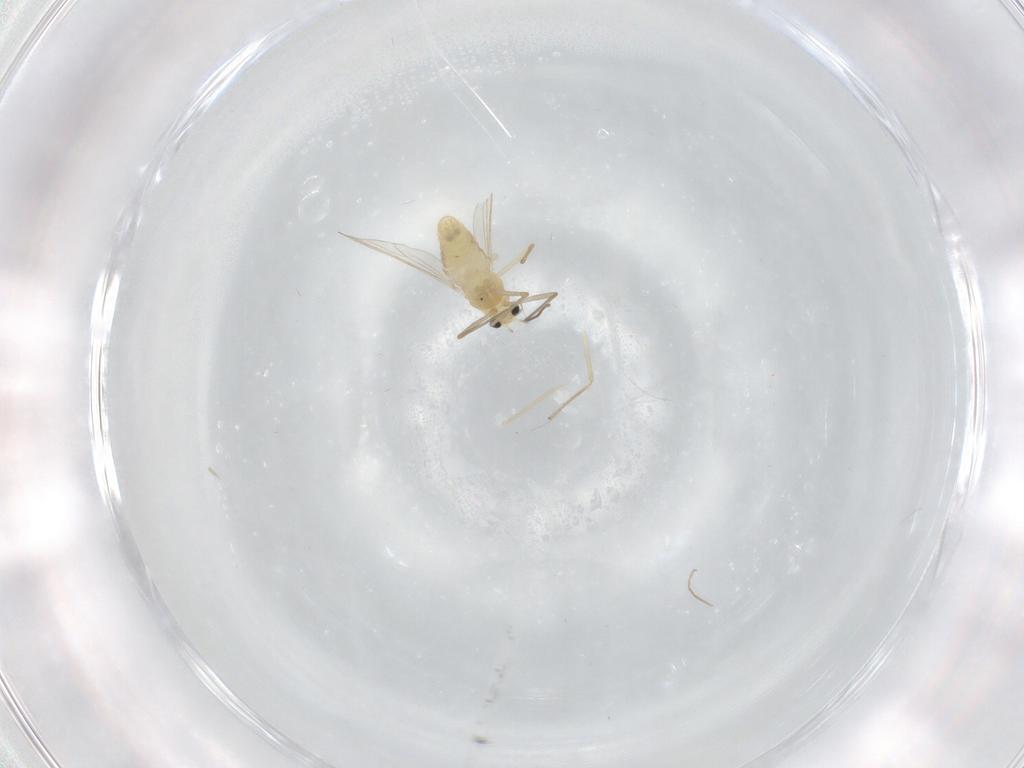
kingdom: Animalia
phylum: Arthropoda
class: Insecta
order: Diptera
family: Chironomidae
